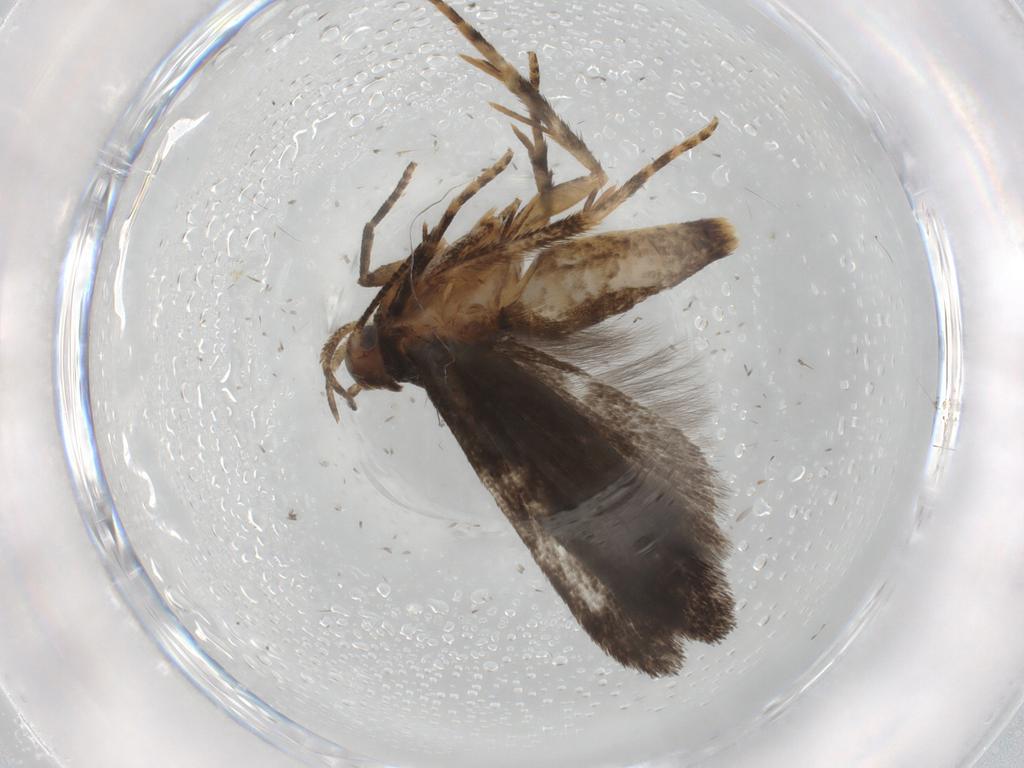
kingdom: Animalia
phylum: Arthropoda
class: Insecta
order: Lepidoptera
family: Gelechiidae
